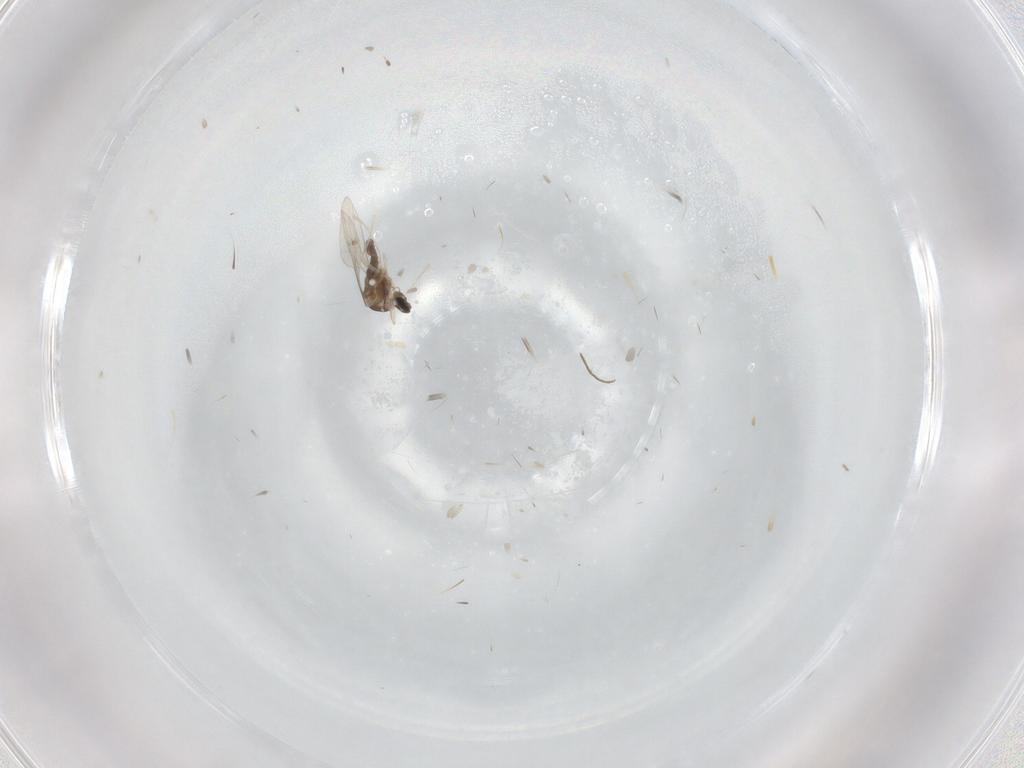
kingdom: Animalia
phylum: Arthropoda
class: Insecta
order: Diptera
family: Cecidomyiidae
